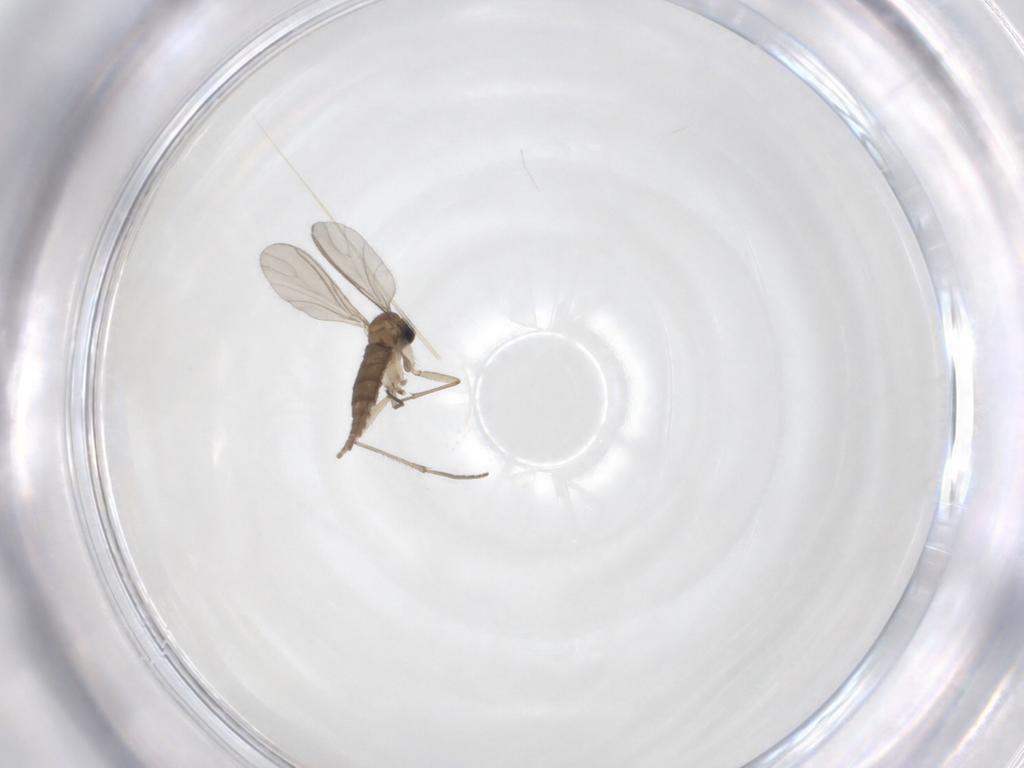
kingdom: Animalia
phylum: Arthropoda
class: Insecta
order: Diptera
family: Sciaridae
